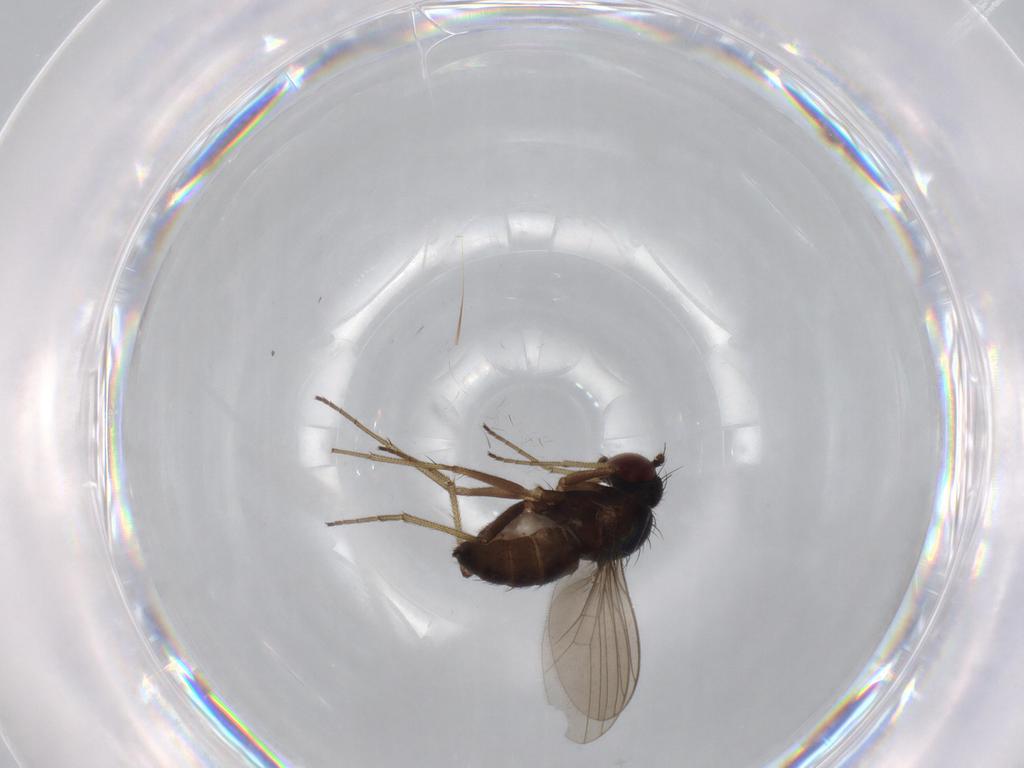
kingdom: Animalia
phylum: Arthropoda
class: Insecta
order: Diptera
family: Dolichopodidae
